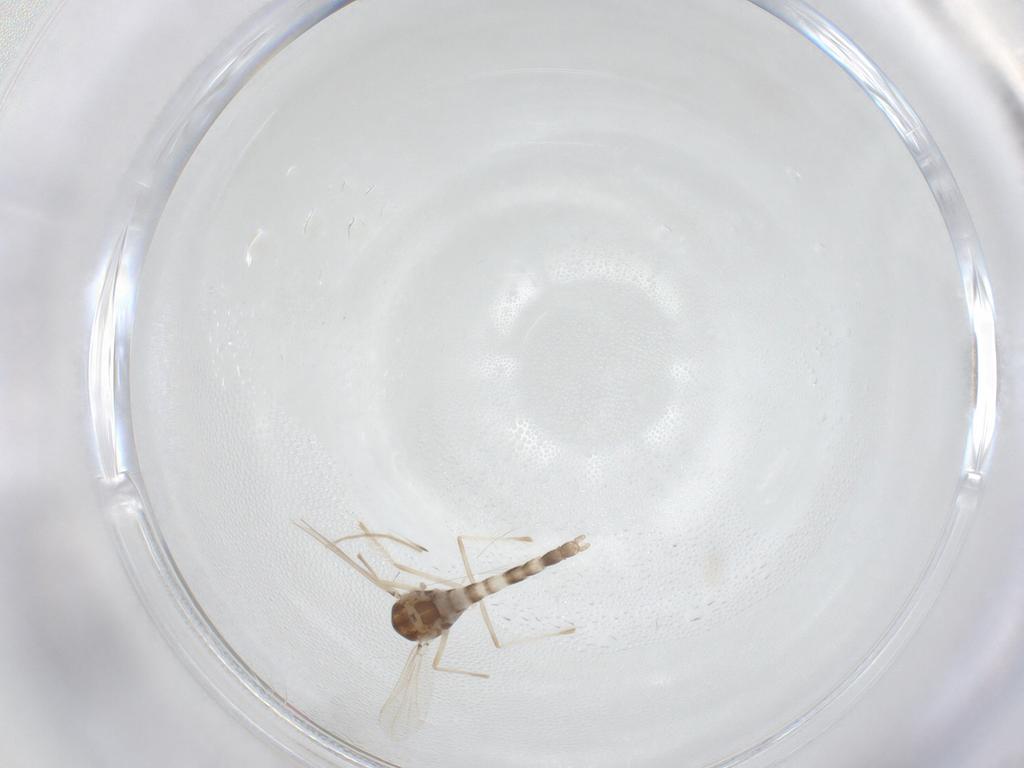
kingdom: Animalia
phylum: Arthropoda
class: Insecta
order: Diptera
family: Chironomidae
